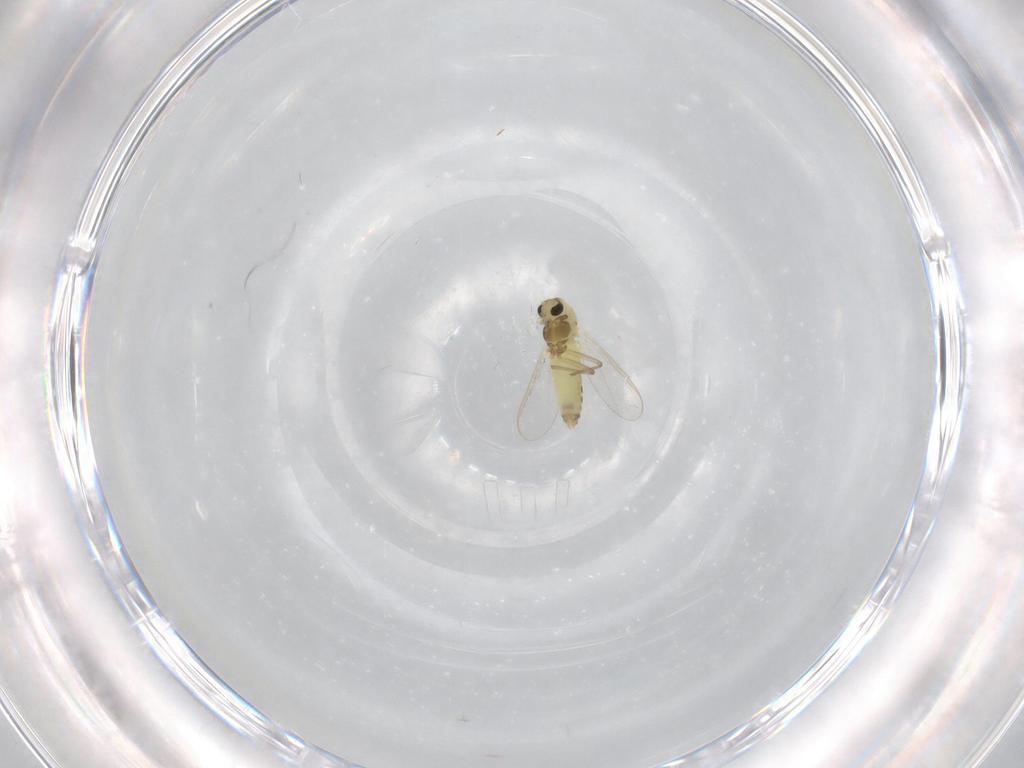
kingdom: Animalia
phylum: Arthropoda
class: Insecta
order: Diptera
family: Chironomidae
